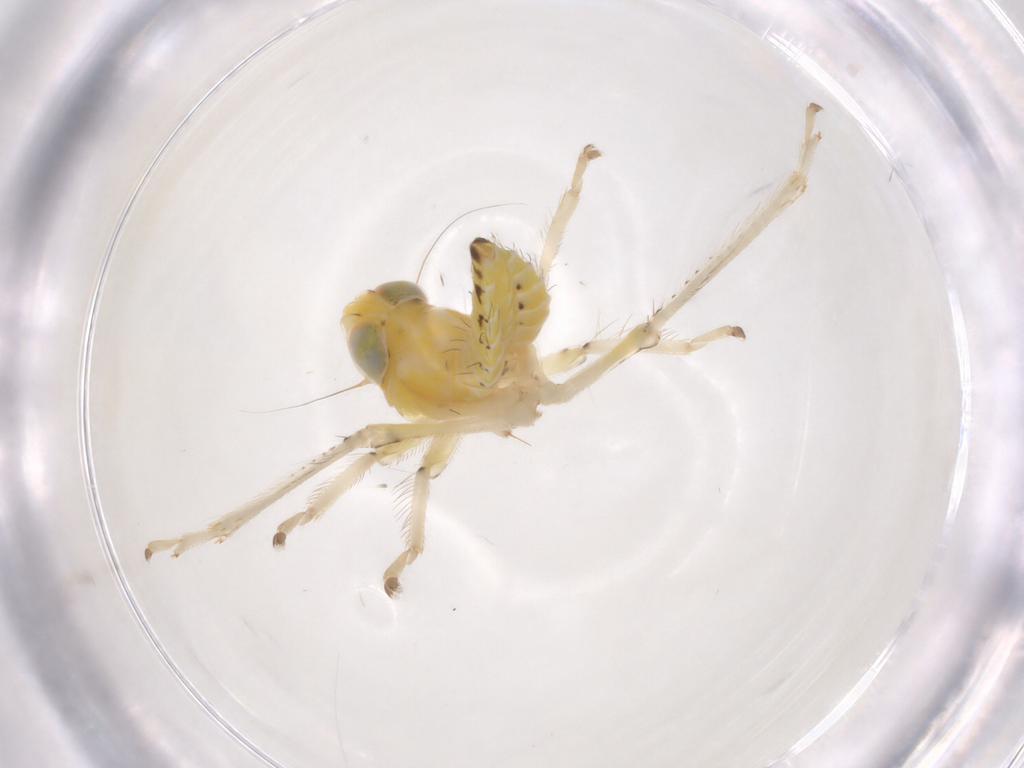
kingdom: Animalia
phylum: Arthropoda
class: Insecta
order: Hemiptera
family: Cicadellidae
